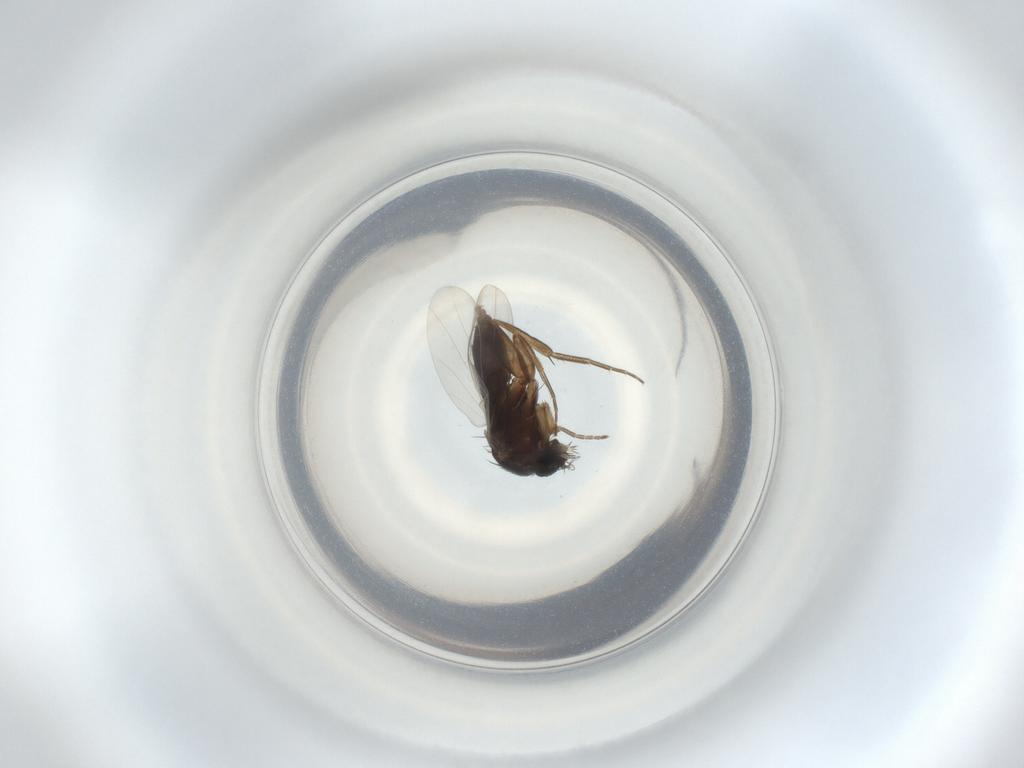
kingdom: Animalia
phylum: Arthropoda
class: Insecta
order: Diptera
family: Phoridae
